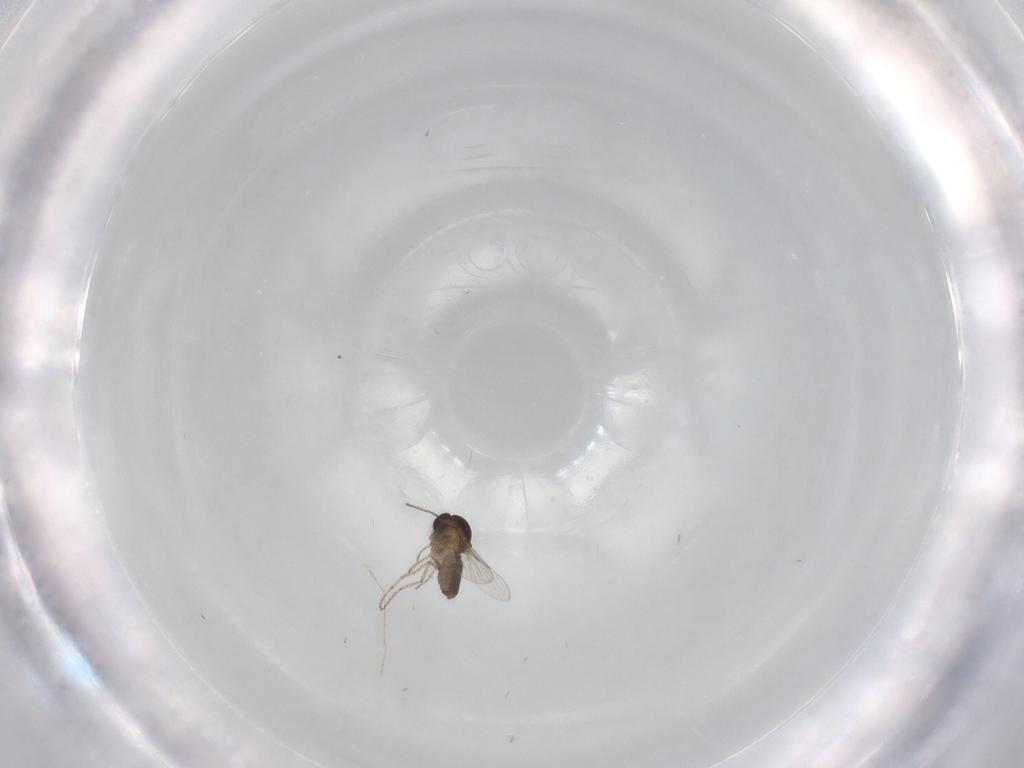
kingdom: Animalia
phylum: Arthropoda
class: Insecta
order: Diptera
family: Ceratopogonidae
